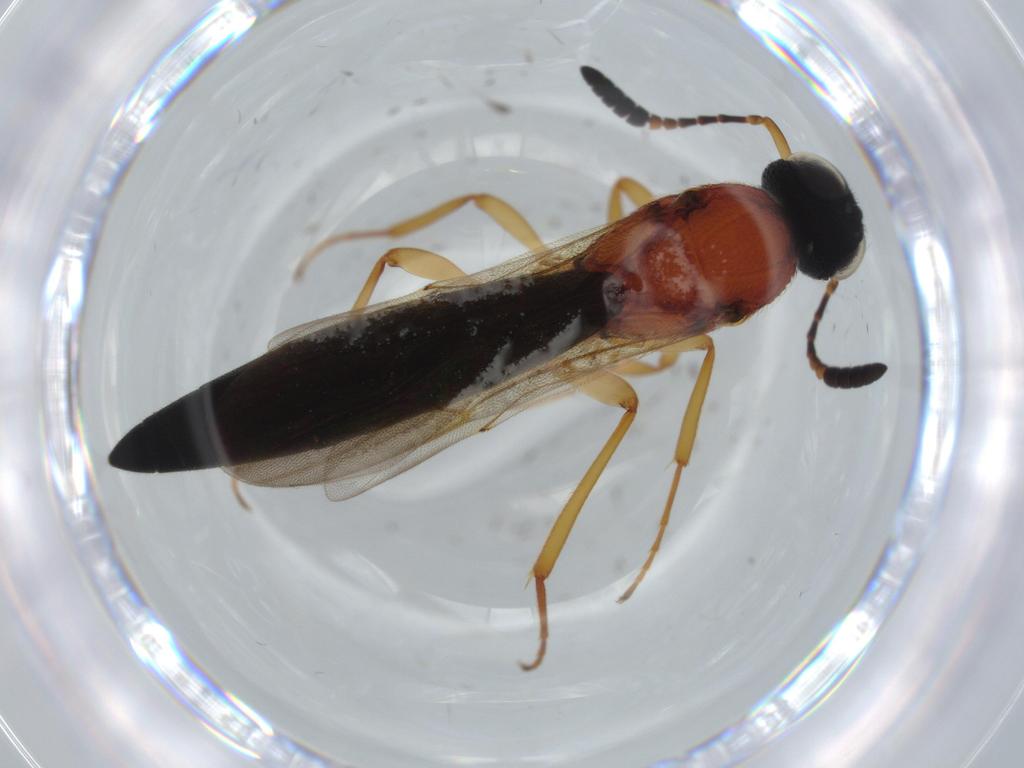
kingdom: Animalia
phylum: Arthropoda
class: Insecta
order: Hymenoptera
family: Scelionidae
